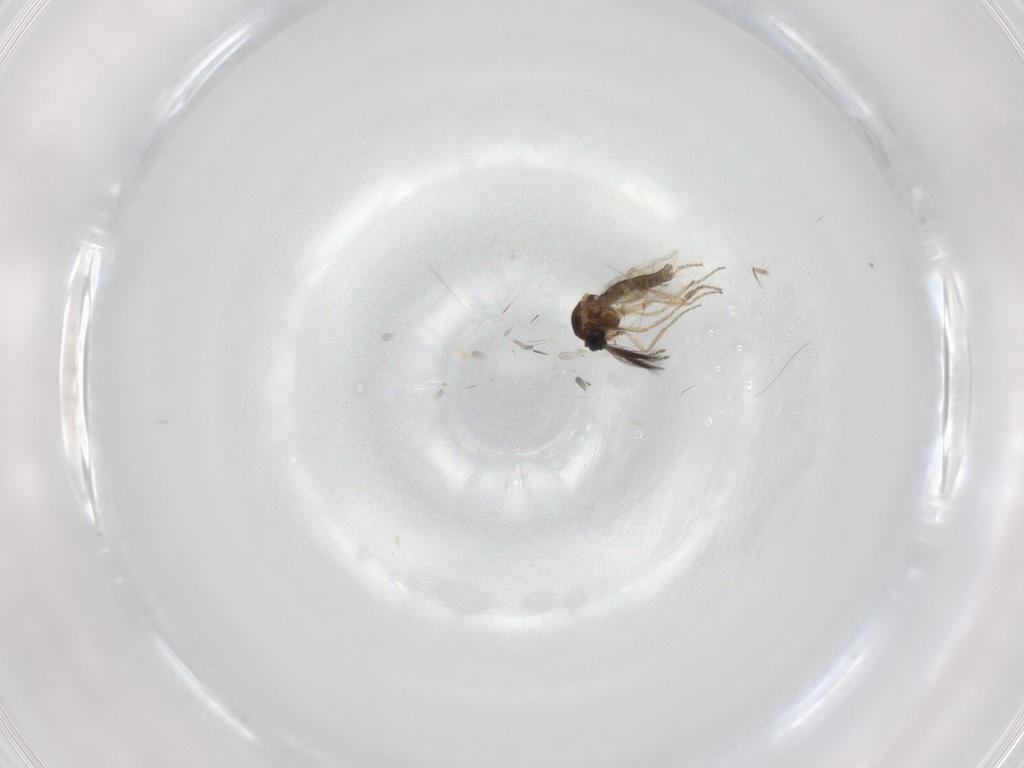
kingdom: Animalia
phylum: Arthropoda
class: Insecta
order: Diptera
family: Ceratopogonidae
